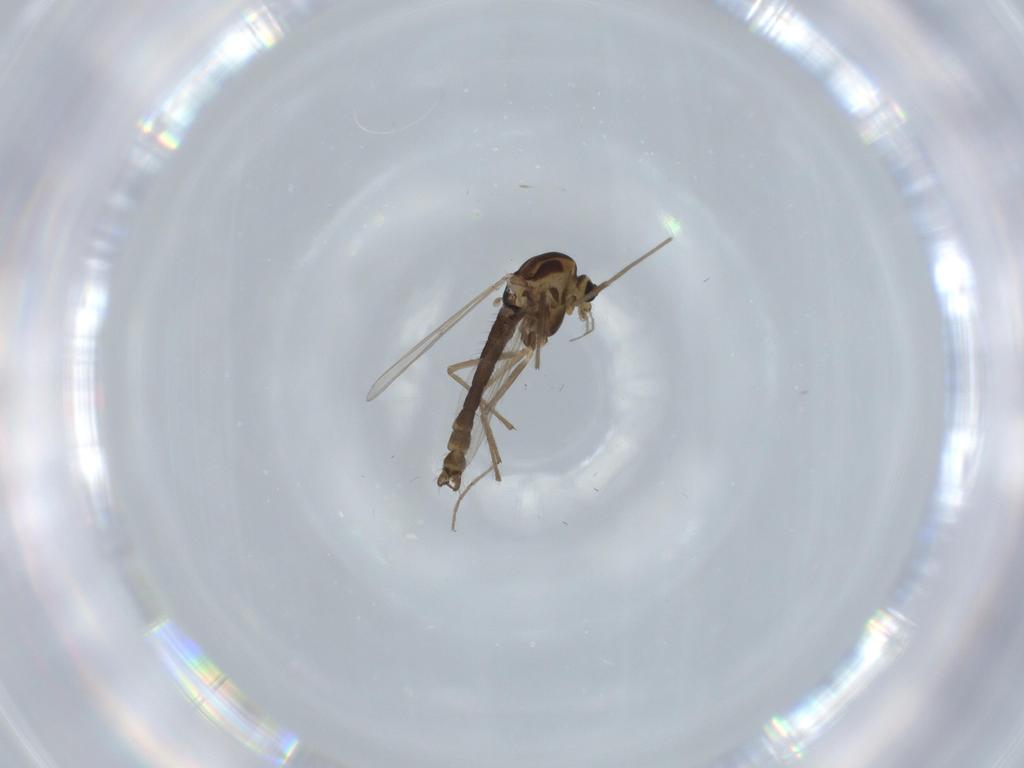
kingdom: Animalia
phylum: Arthropoda
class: Insecta
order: Diptera
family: Chironomidae
